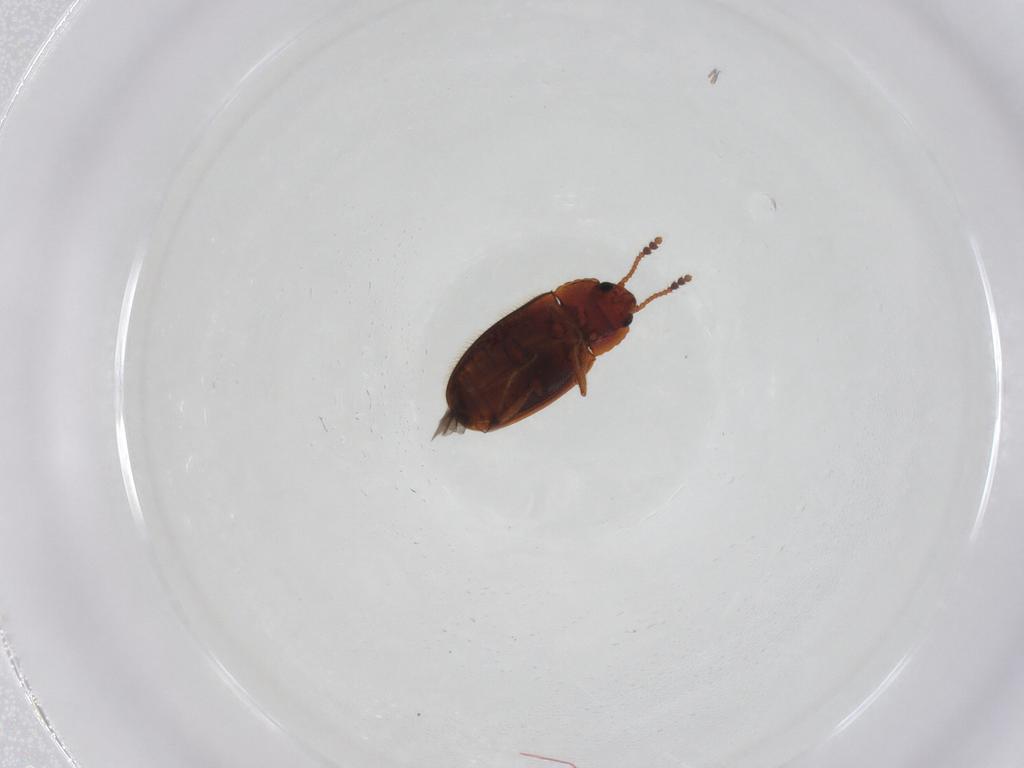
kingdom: Animalia
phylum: Arthropoda
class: Insecta
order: Coleoptera
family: Erotylidae
